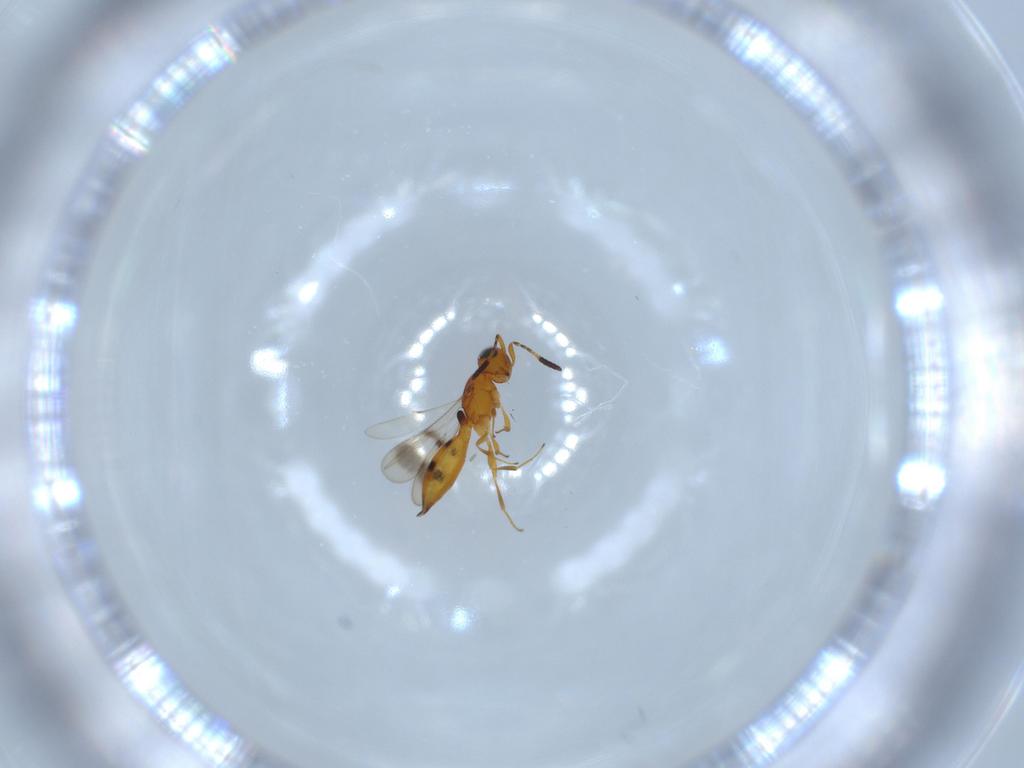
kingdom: Animalia
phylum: Arthropoda
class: Insecta
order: Hymenoptera
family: Scelionidae
